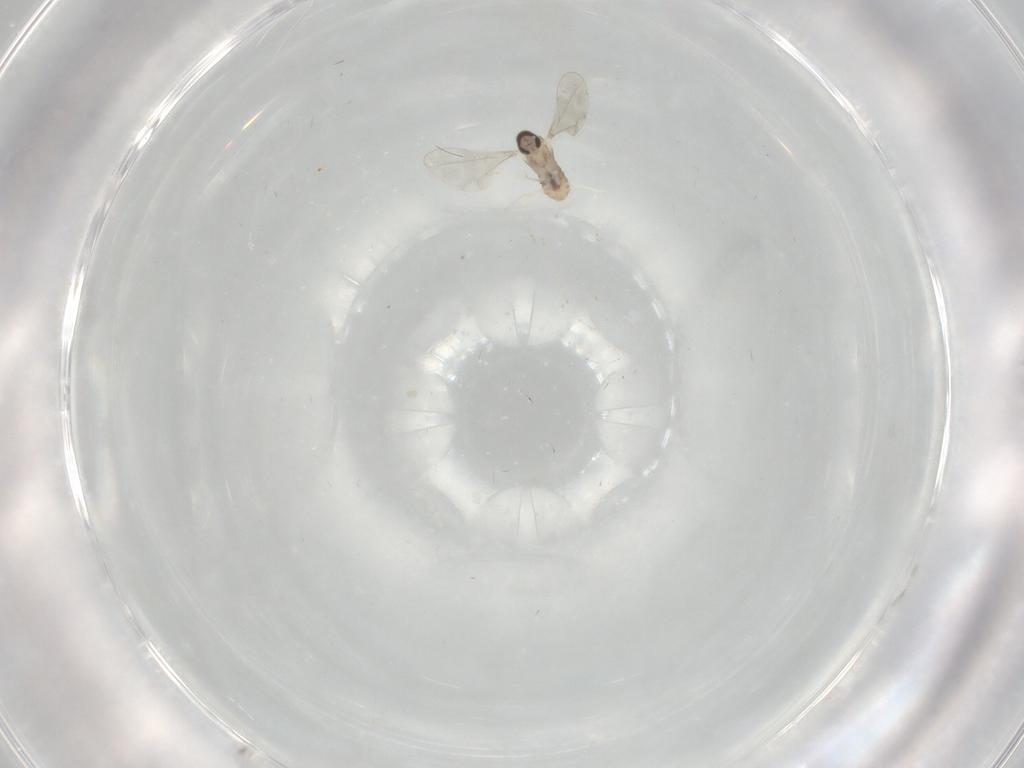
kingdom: Animalia
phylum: Arthropoda
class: Insecta
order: Diptera
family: Cecidomyiidae
